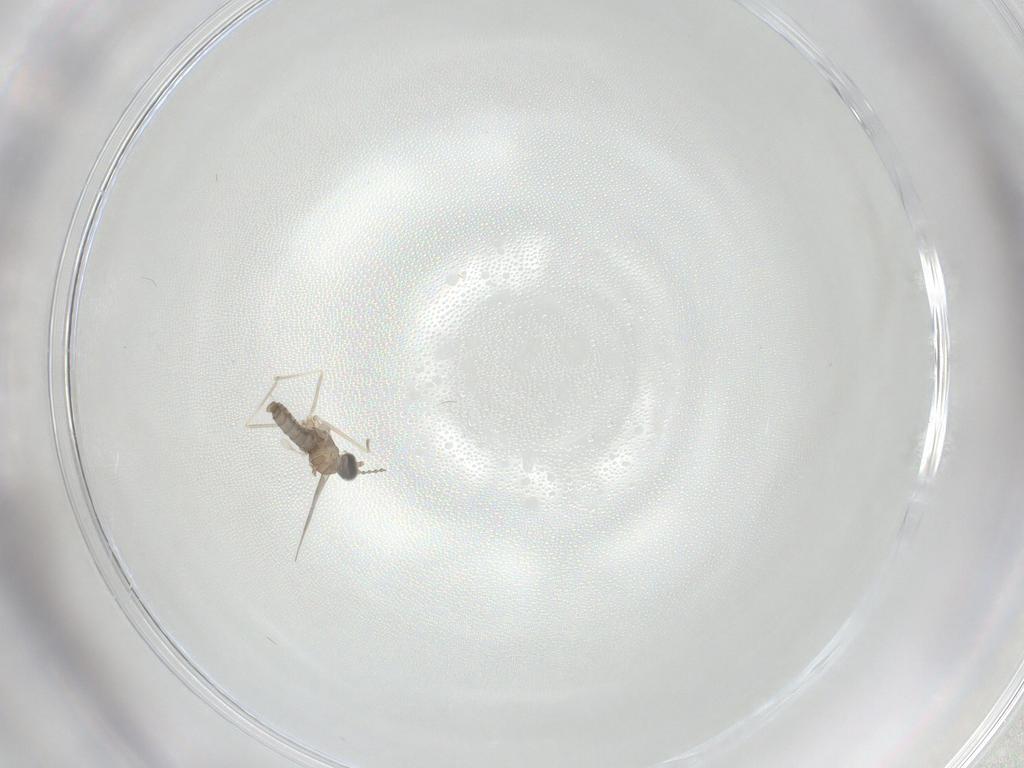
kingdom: Animalia
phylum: Arthropoda
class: Insecta
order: Diptera
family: Cecidomyiidae
